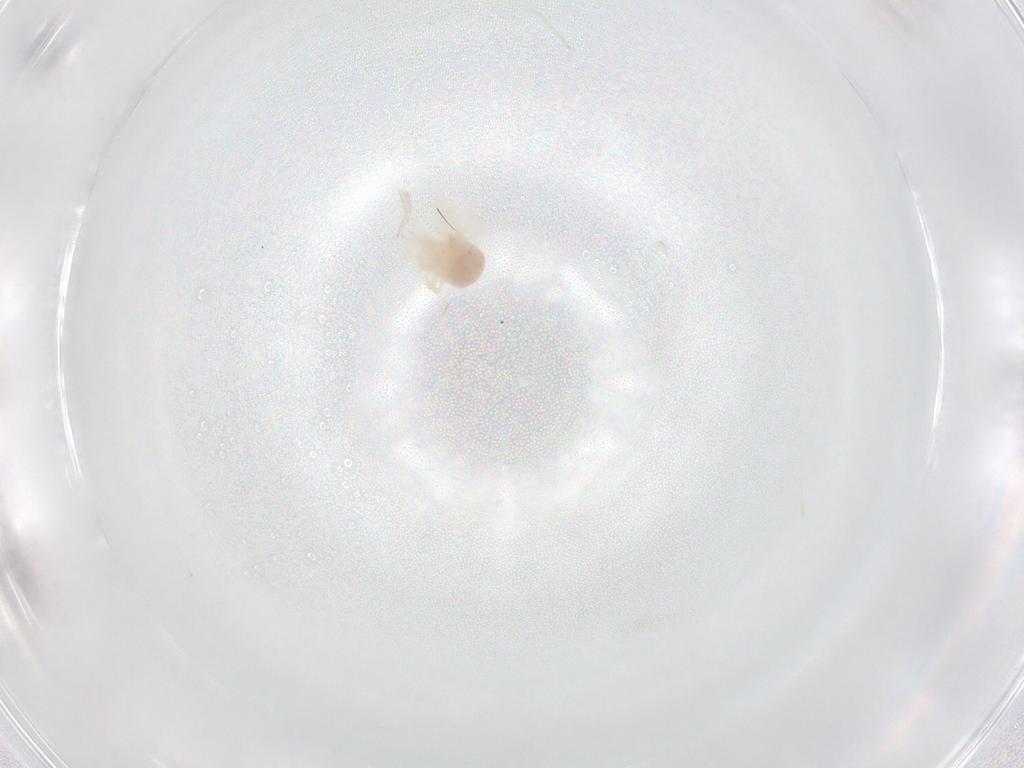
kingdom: Animalia
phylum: Arthropoda
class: Arachnida
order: Trombidiformes
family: Anystidae
